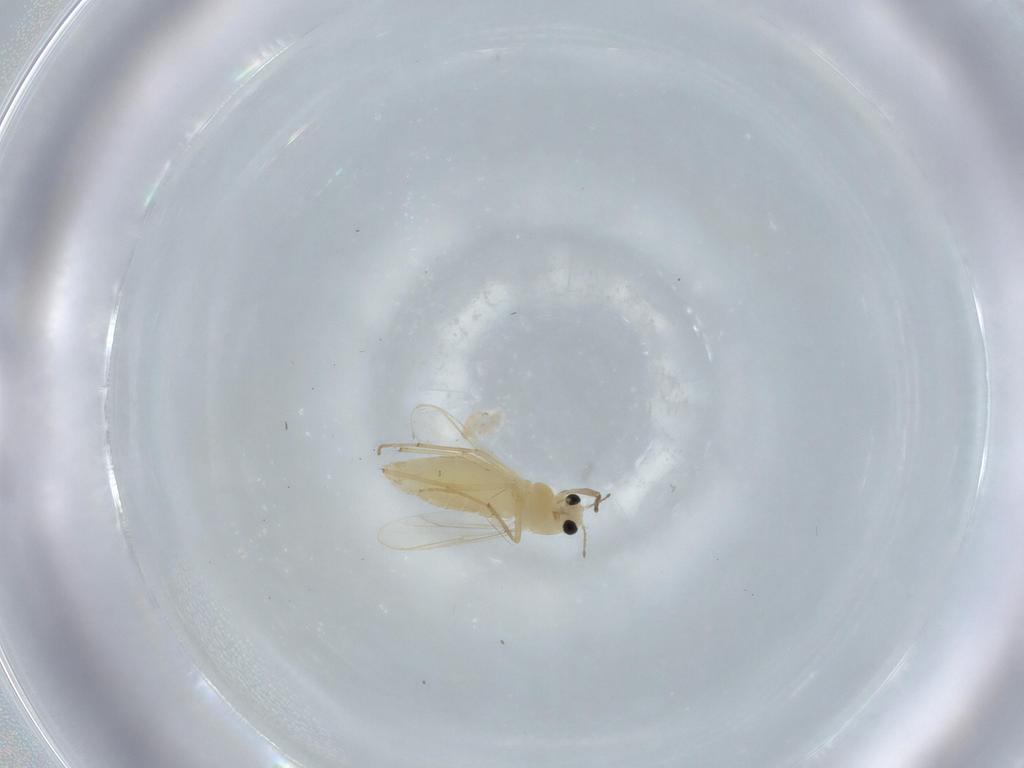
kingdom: Animalia
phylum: Arthropoda
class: Insecta
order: Diptera
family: Chironomidae
